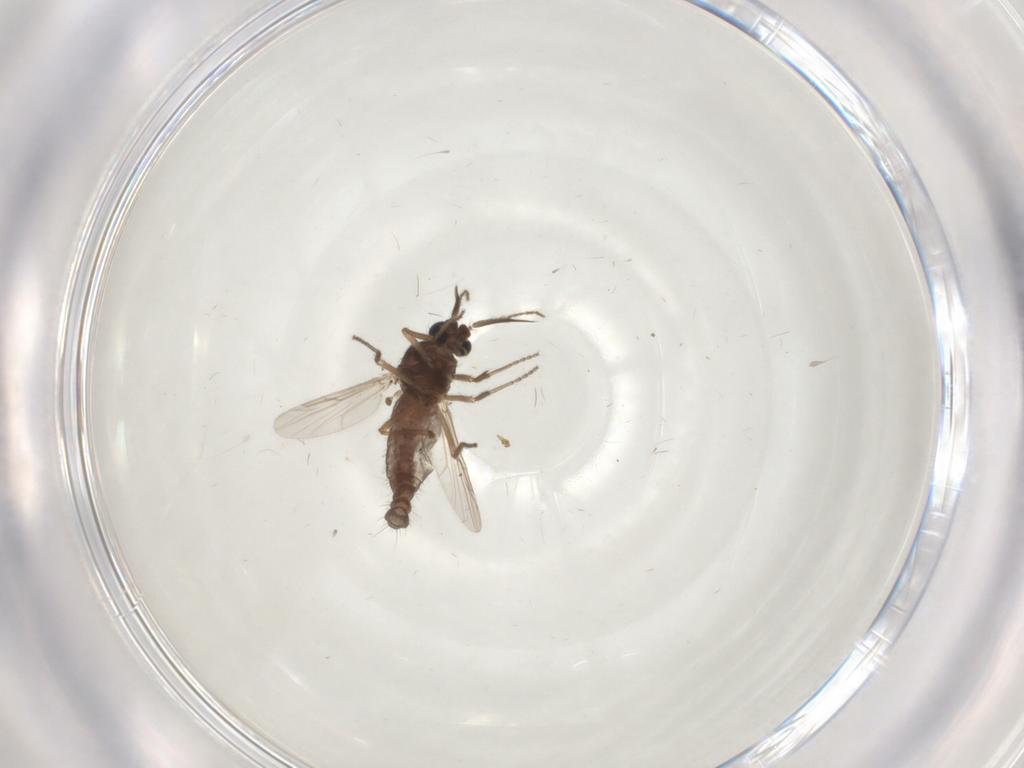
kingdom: Animalia
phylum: Arthropoda
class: Insecta
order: Diptera
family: Ceratopogonidae
